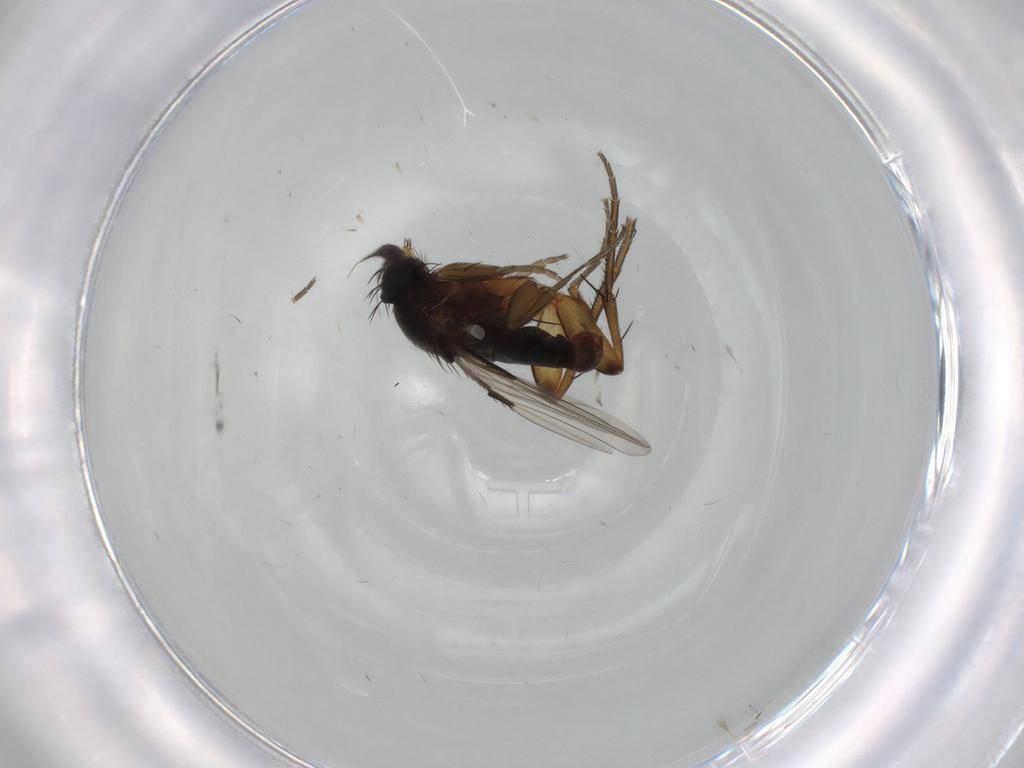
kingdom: Animalia
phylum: Arthropoda
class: Insecta
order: Diptera
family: Phoridae
